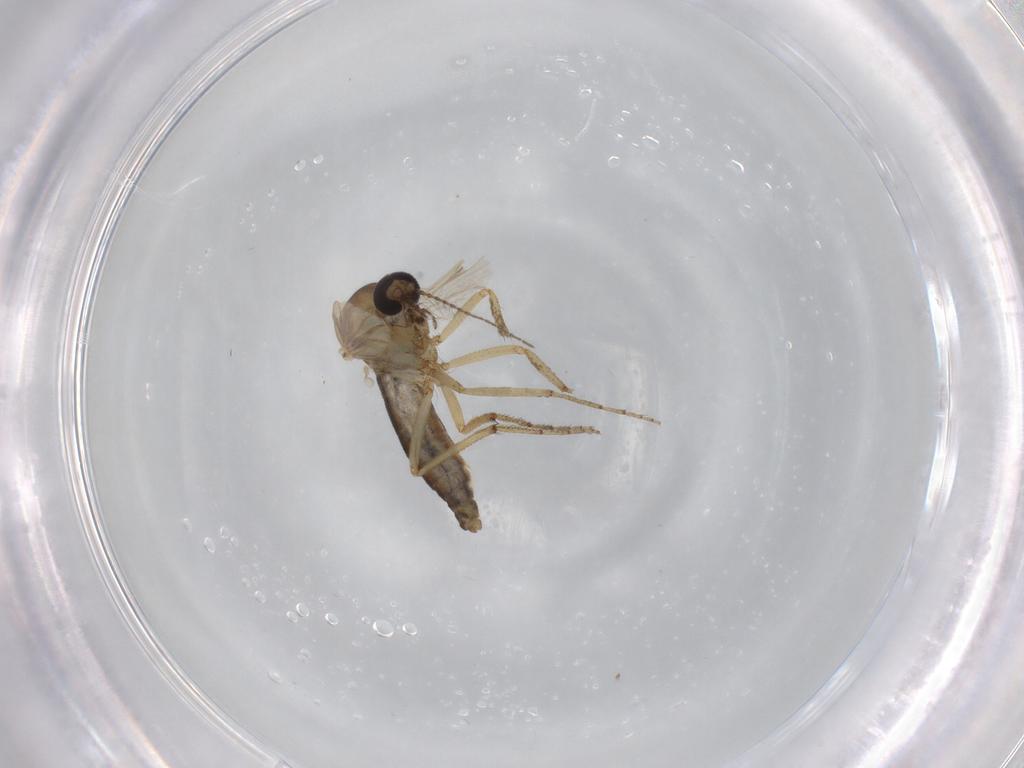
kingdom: Animalia
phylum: Arthropoda
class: Insecta
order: Diptera
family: Ceratopogonidae
